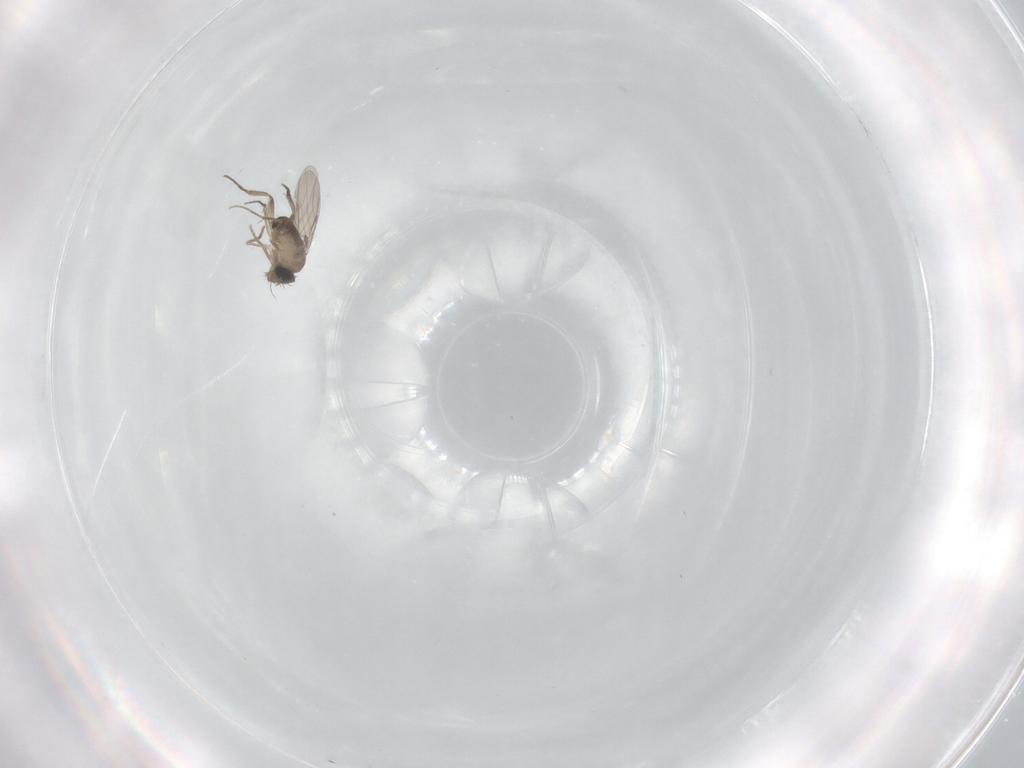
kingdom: Animalia
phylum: Arthropoda
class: Insecta
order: Diptera
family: Phoridae
